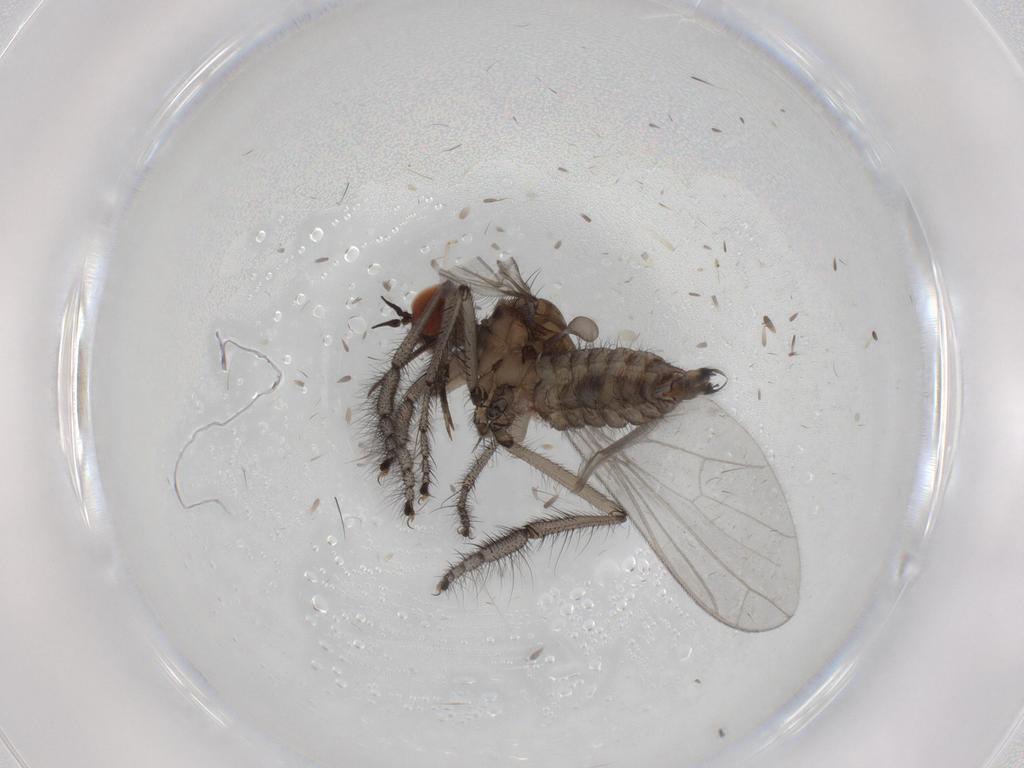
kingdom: Animalia
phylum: Arthropoda
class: Insecta
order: Diptera
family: Empididae
